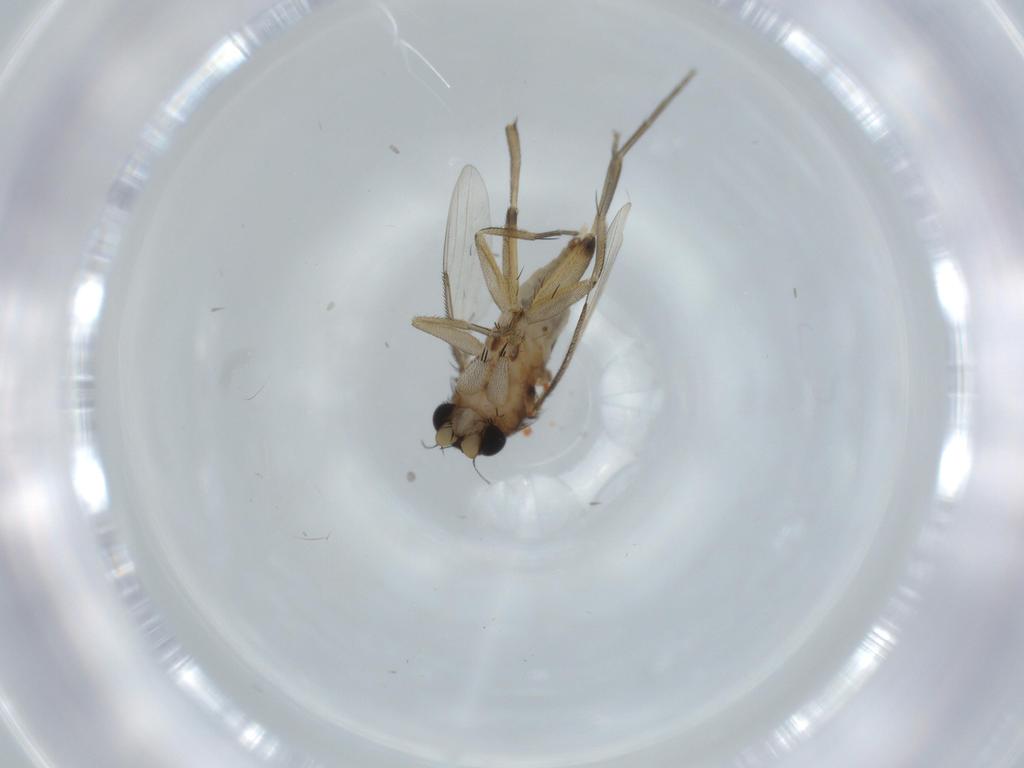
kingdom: Animalia
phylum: Arthropoda
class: Insecta
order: Diptera
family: Phoridae
